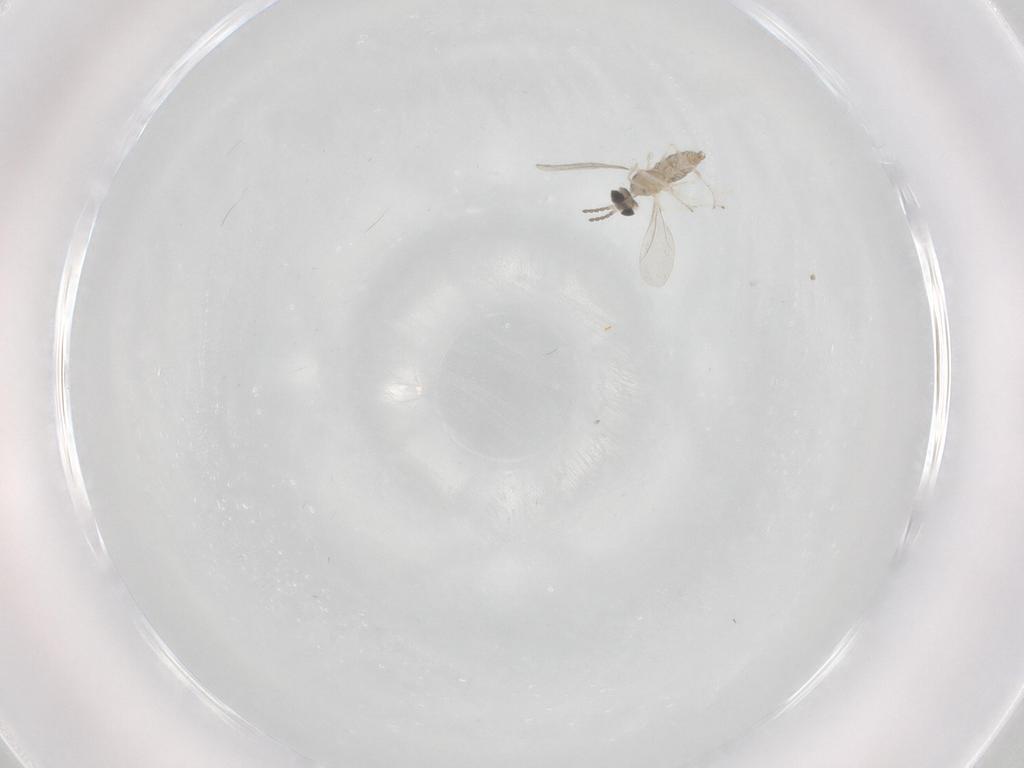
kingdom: Animalia
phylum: Arthropoda
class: Insecta
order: Diptera
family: Cecidomyiidae
